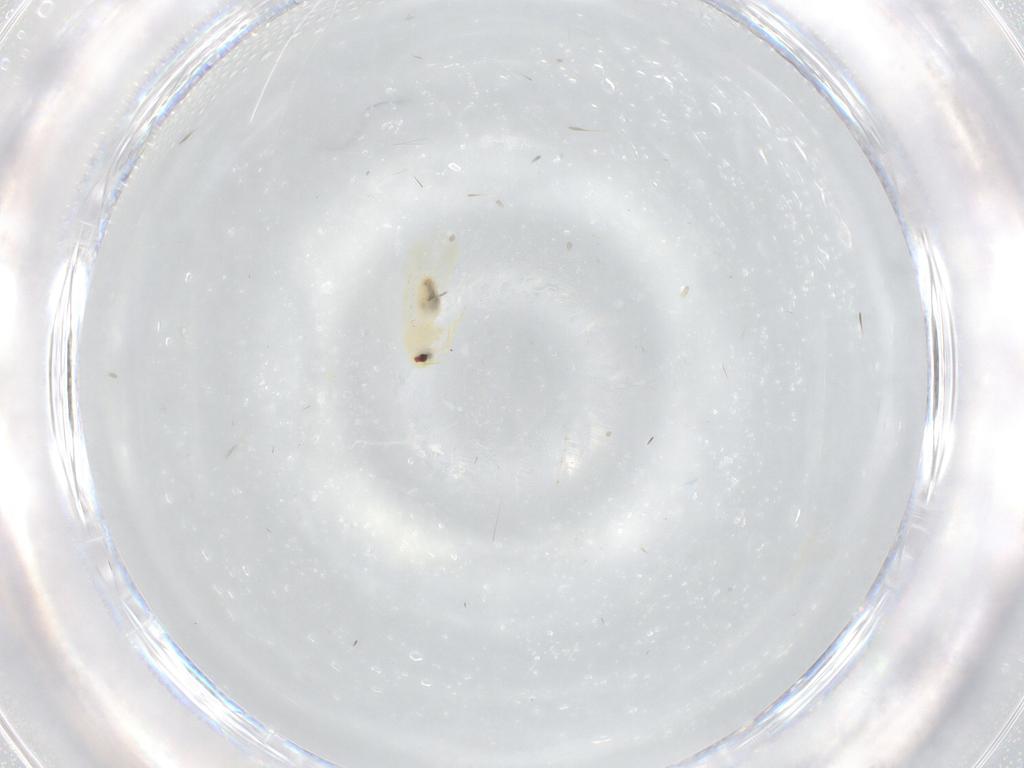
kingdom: Animalia
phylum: Arthropoda
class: Insecta
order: Hemiptera
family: Aleyrodidae
